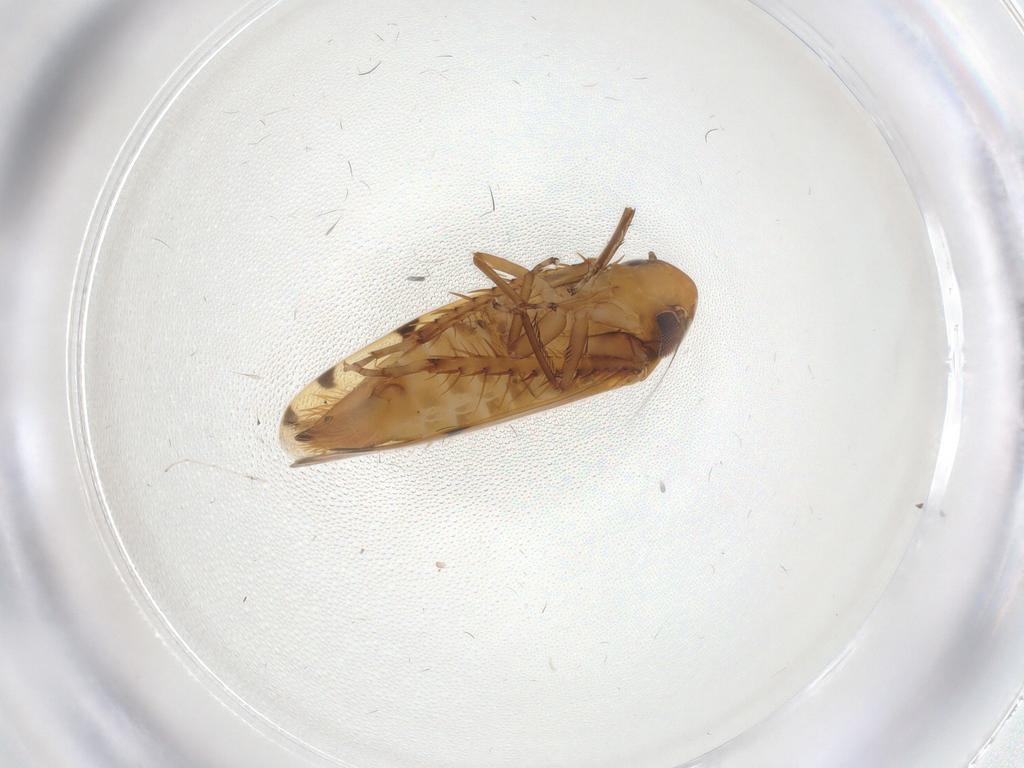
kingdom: Animalia
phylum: Arthropoda
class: Insecta
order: Hemiptera
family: Cicadellidae
